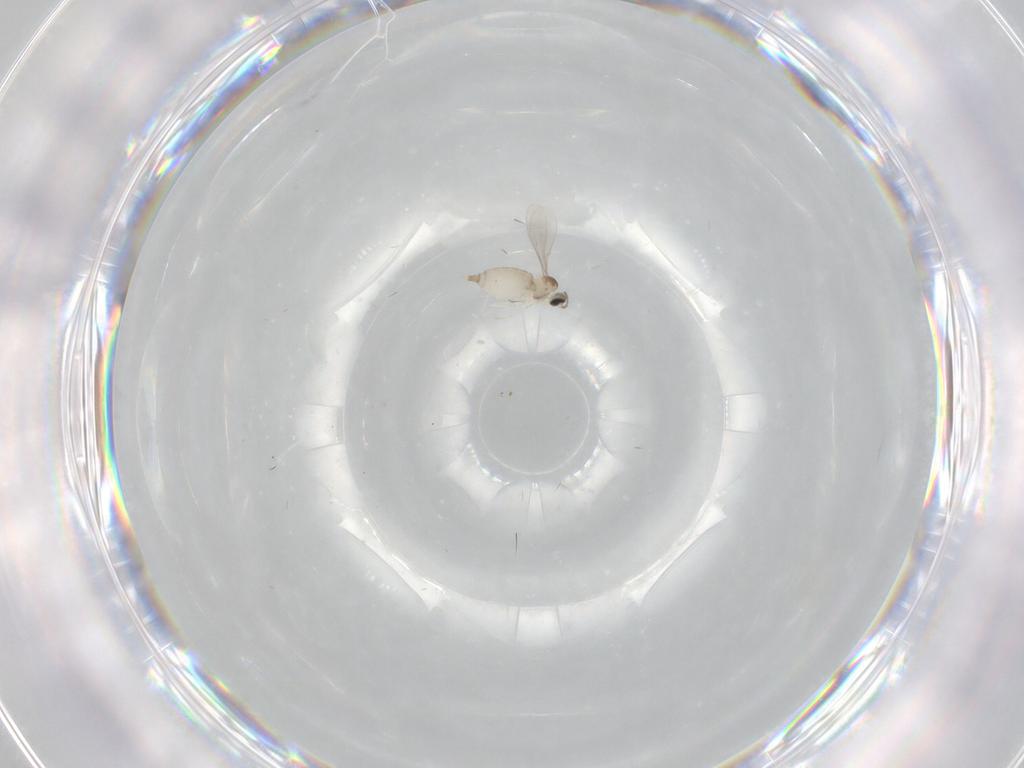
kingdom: Animalia
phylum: Arthropoda
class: Insecta
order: Diptera
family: Cecidomyiidae
